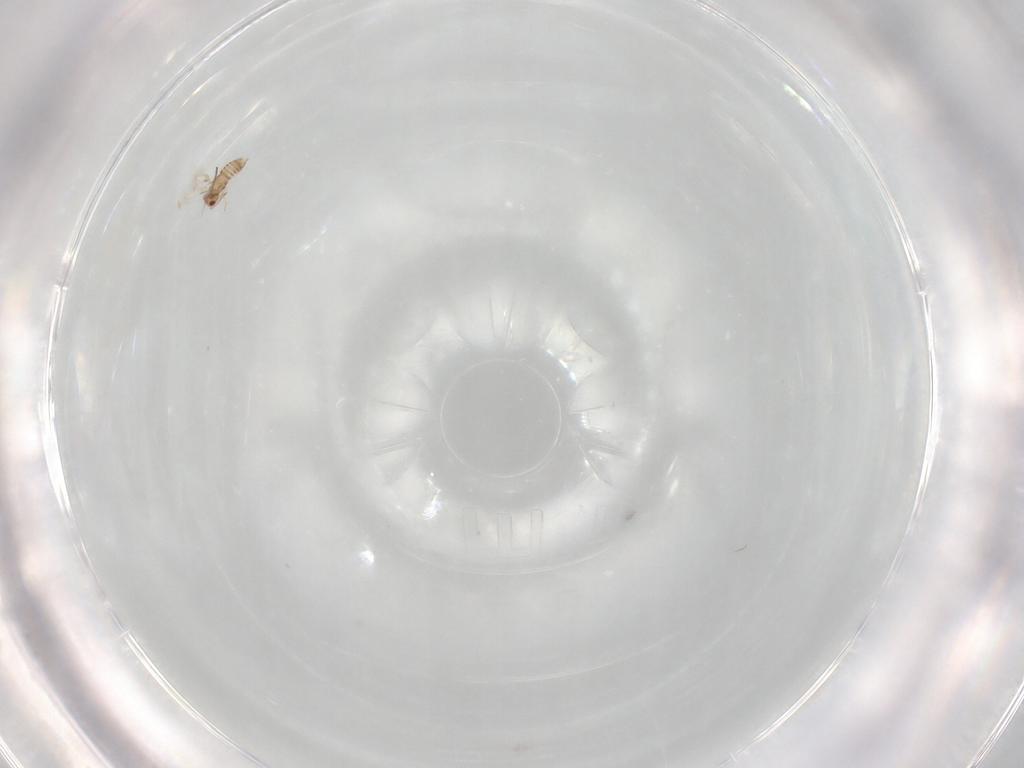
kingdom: Animalia
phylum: Arthropoda
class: Insecta
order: Hymenoptera
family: Aphelinidae
